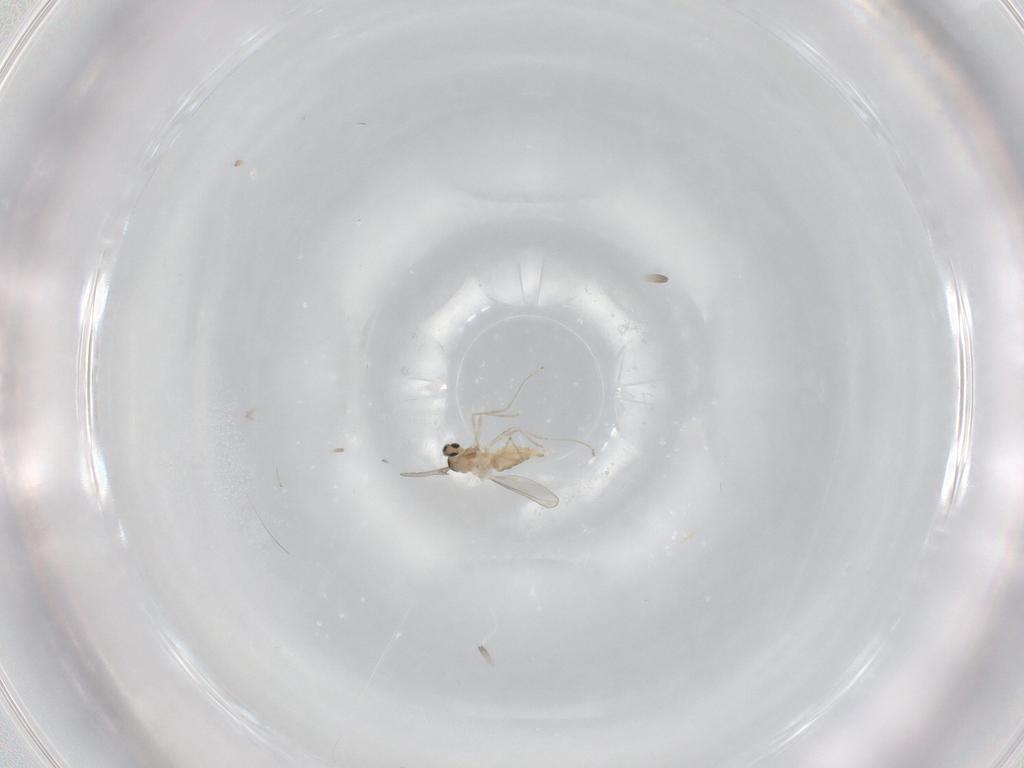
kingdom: Animalia
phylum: Arthropoda
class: Insecta
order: Diptera
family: Cecidomyiidae
